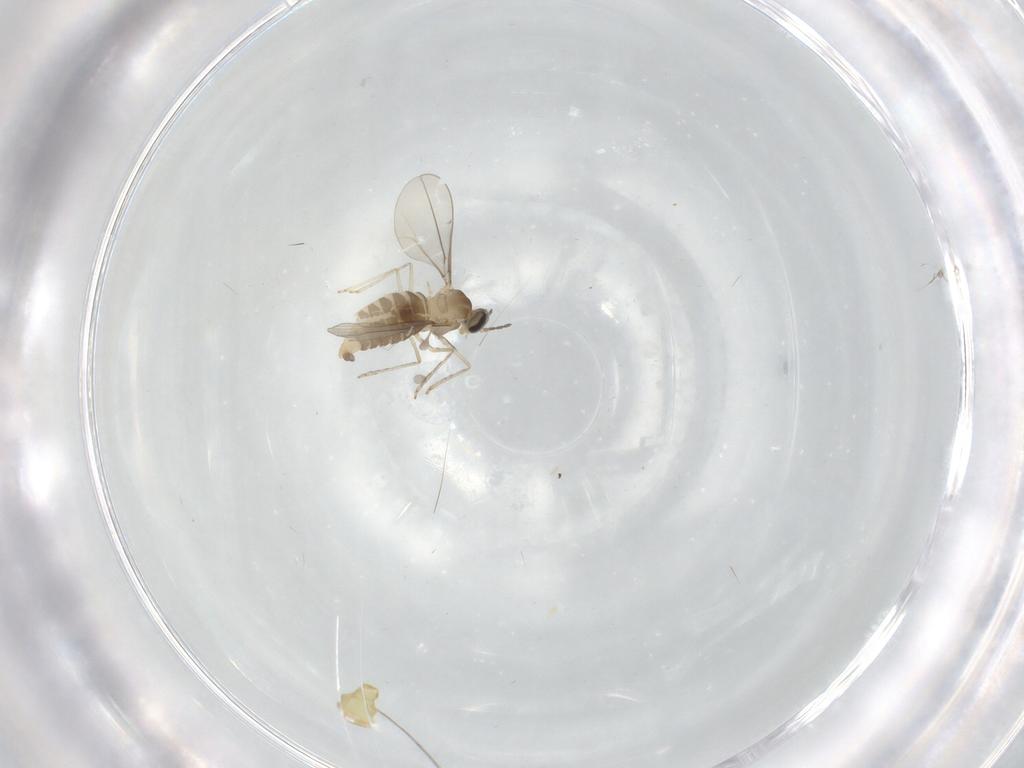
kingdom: Animalia
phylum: Arthropoda
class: Insecta
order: Diptera
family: Cecidomyiidae
